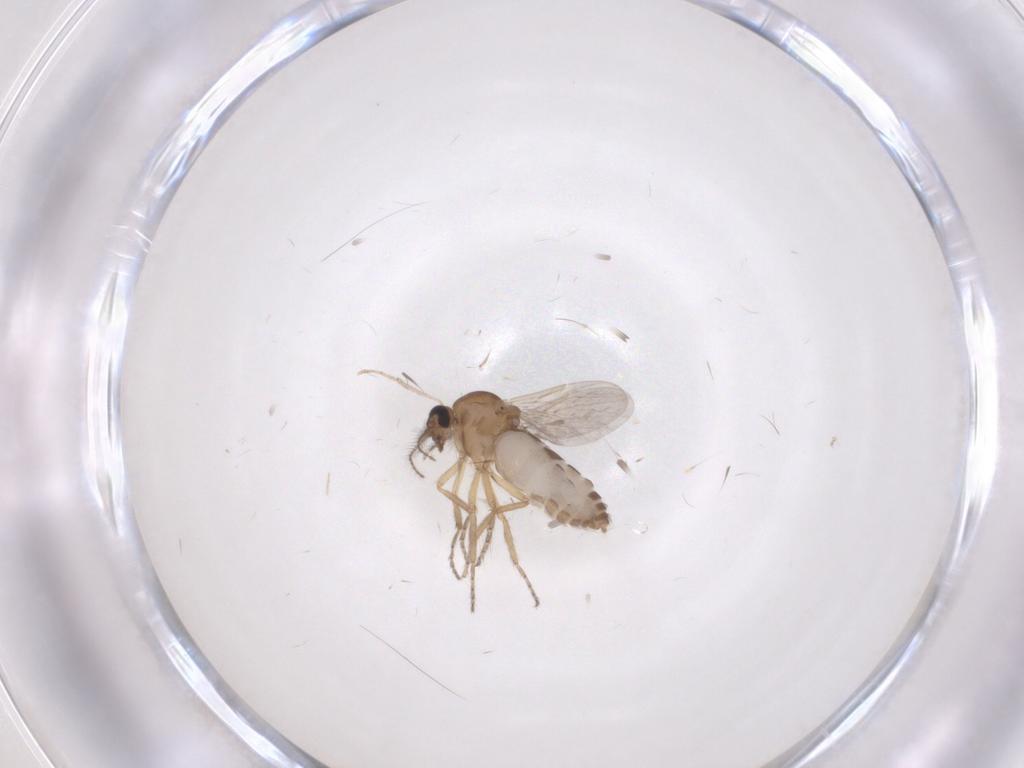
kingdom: Animalia
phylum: Arthropoda
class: Insecta
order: Diptera
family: Ceratopogonidae
